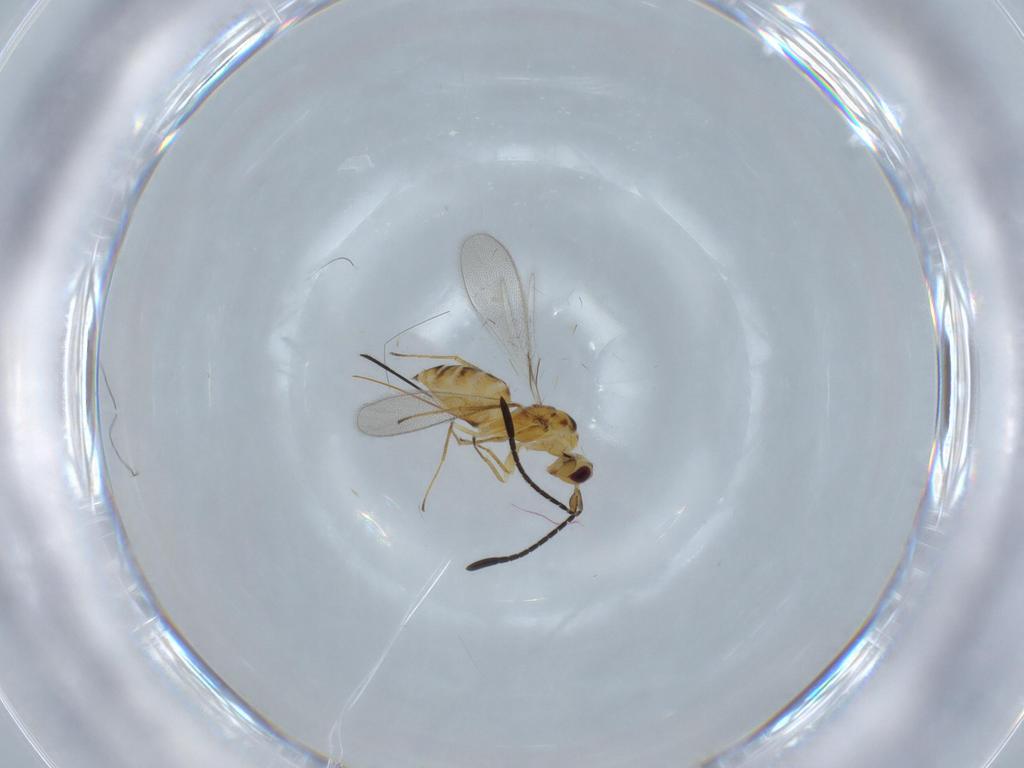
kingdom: Animalia
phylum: Arthropoda
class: Insecta
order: Hymenoptera
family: Mymaridae
